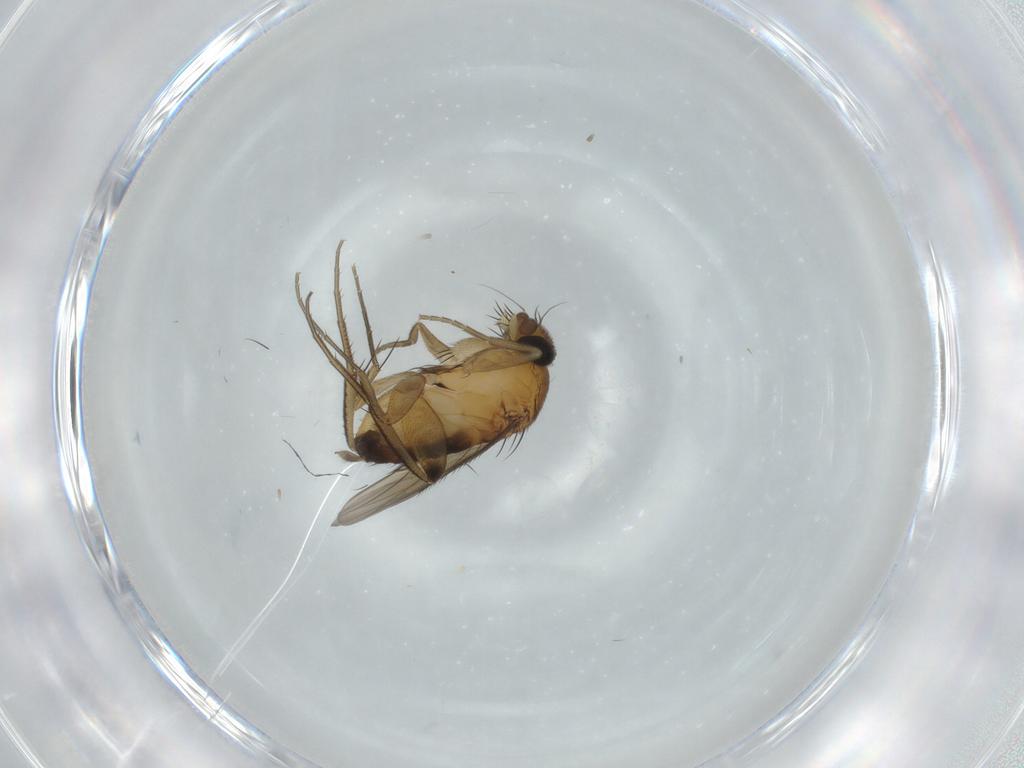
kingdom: Animalia
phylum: Arthropoda
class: Insecta
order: Diptera
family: Phoridae
